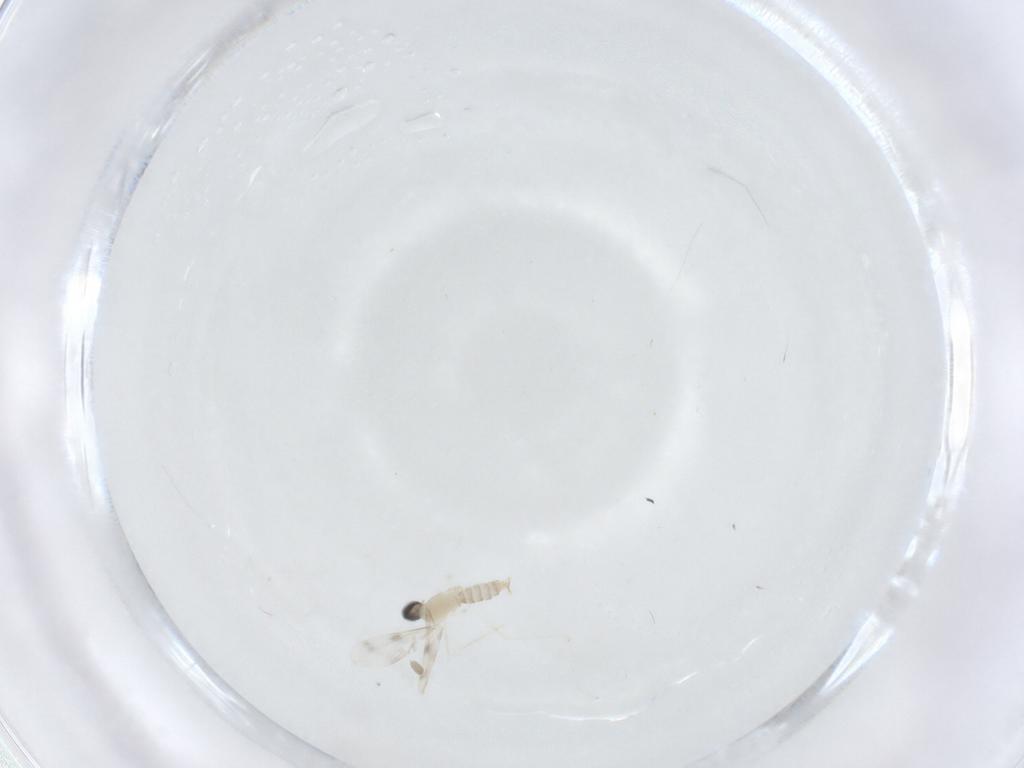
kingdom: Animalia
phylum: Arthropoda
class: Insecta
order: Diptera
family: Cecidomyiidae
